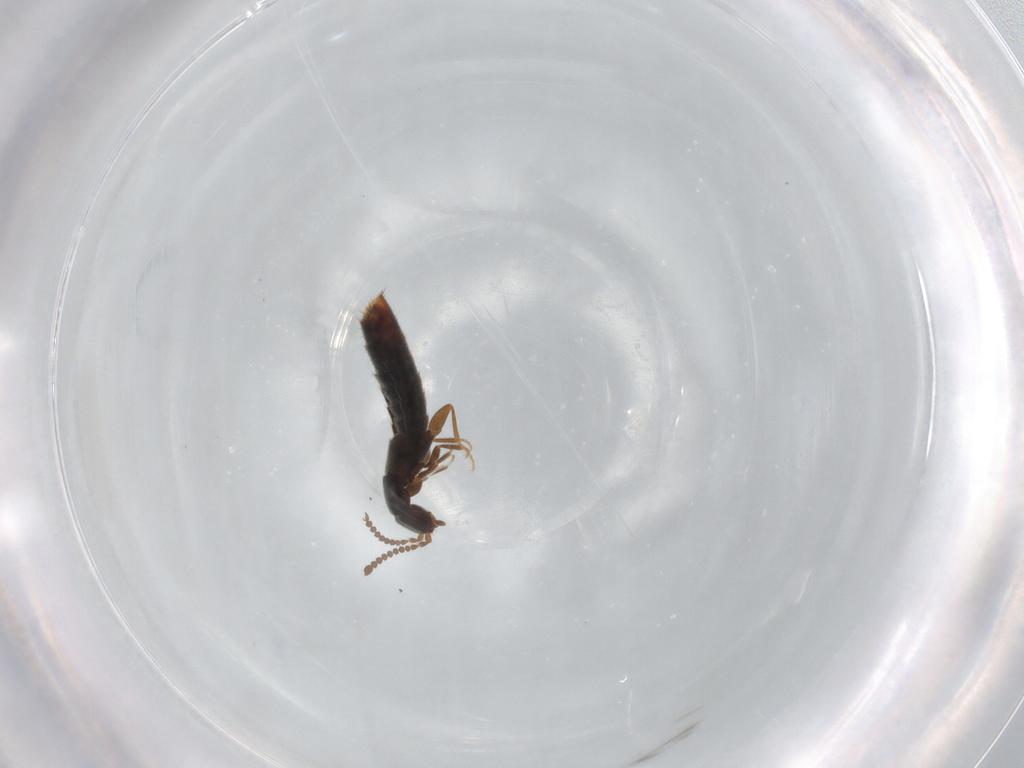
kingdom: Animalia
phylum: Arthropoda
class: Insecta
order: Coleoptera
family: Staphylinidae
